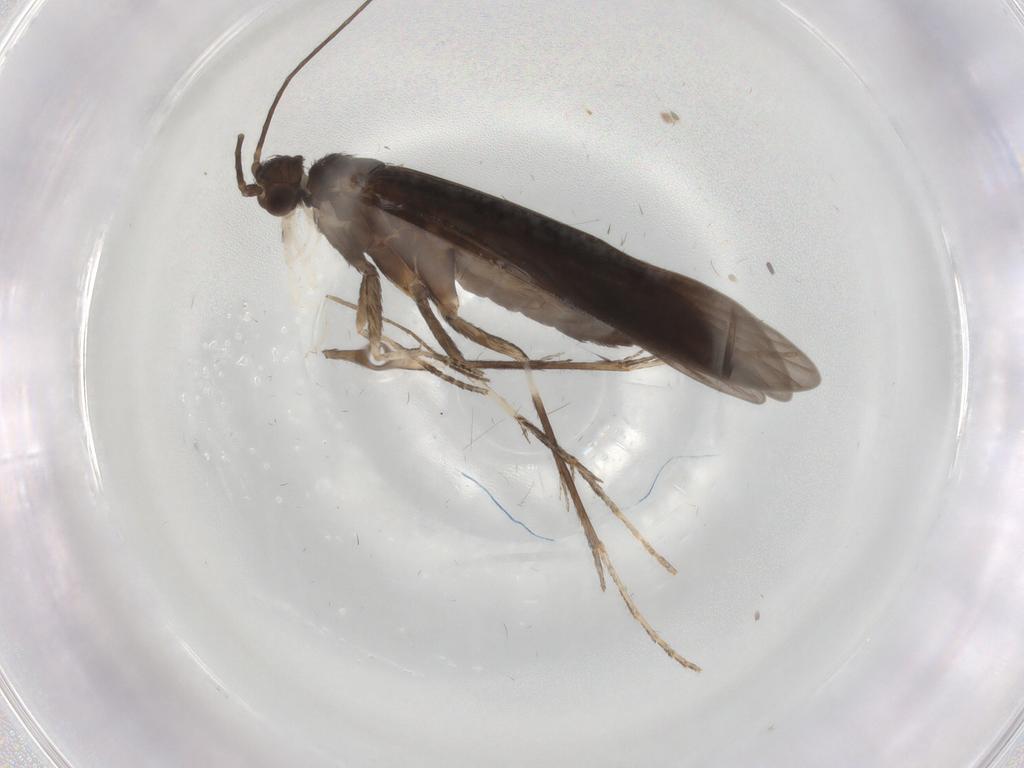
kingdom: Animalia
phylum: Arthropoda
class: Insecta
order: Trichoptera
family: Xiphocentronidae
